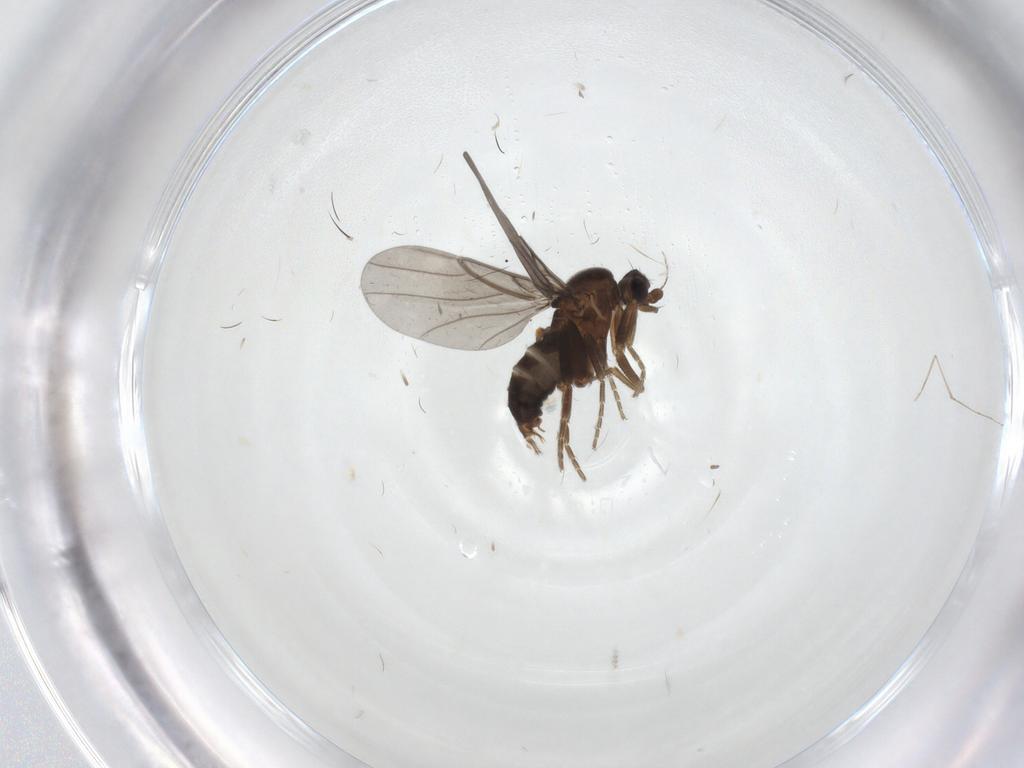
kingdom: Animalia
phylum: Arthropoda
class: Insecta
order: Diptera
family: Phoridae
